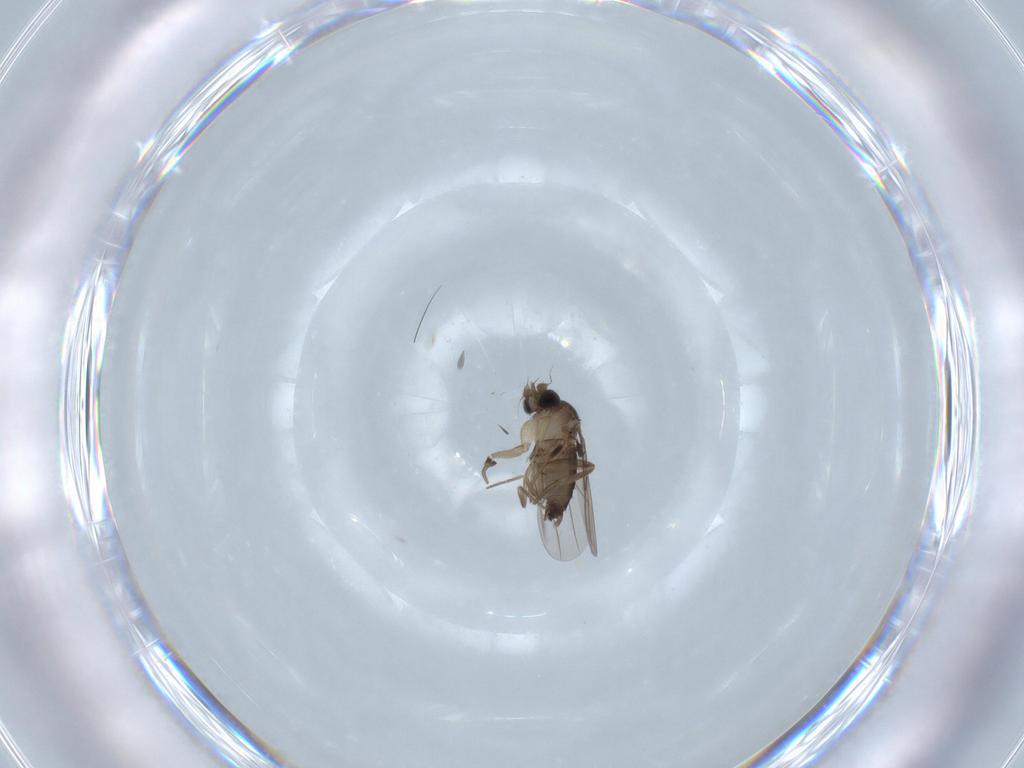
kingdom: Animalia
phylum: Arthropoda
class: Insecta
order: Diptera
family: Phoridae
